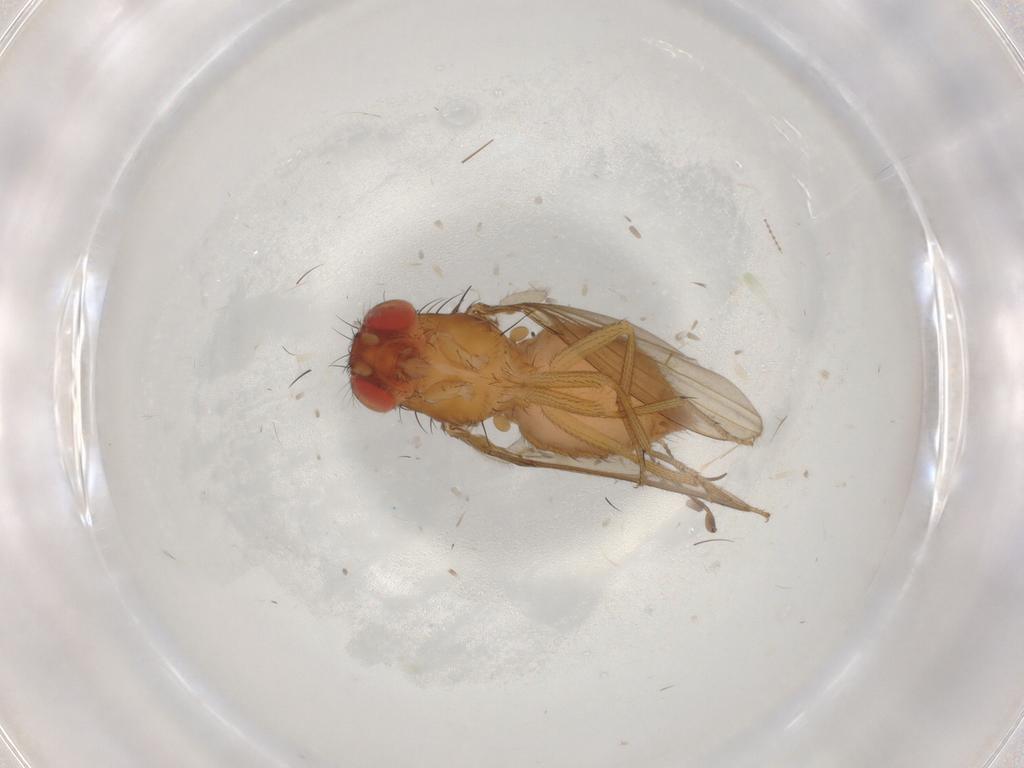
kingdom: Animalia
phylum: Arthropoda
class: Insecta
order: Diptera
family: Drosophilidae
